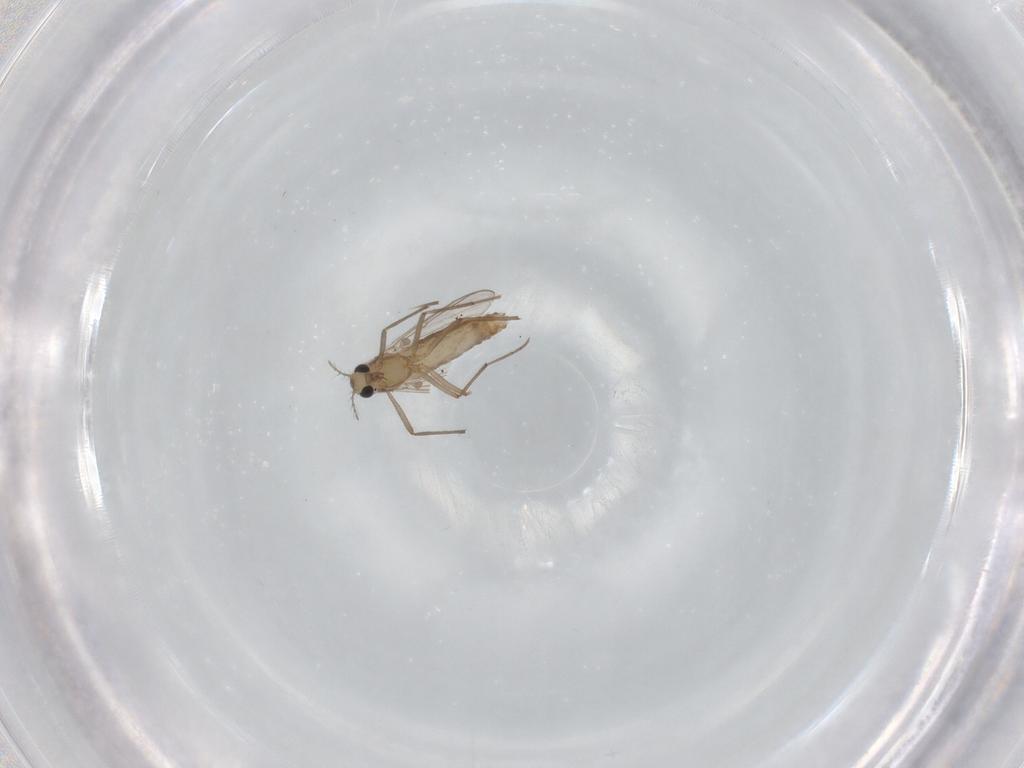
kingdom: Animalia
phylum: Arthropoda
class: Insecta
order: Diptera
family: Chironomidae
